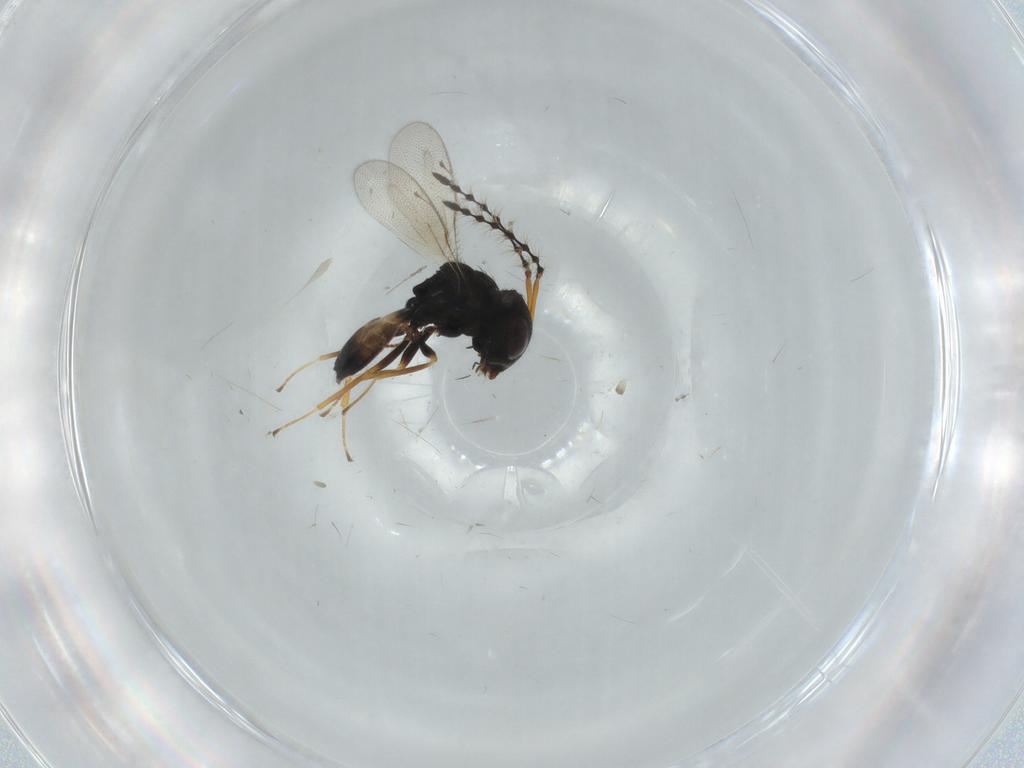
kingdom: Animalia
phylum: Arthropoda
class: Insecta
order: Hymenoptera
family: Pteromalidae
